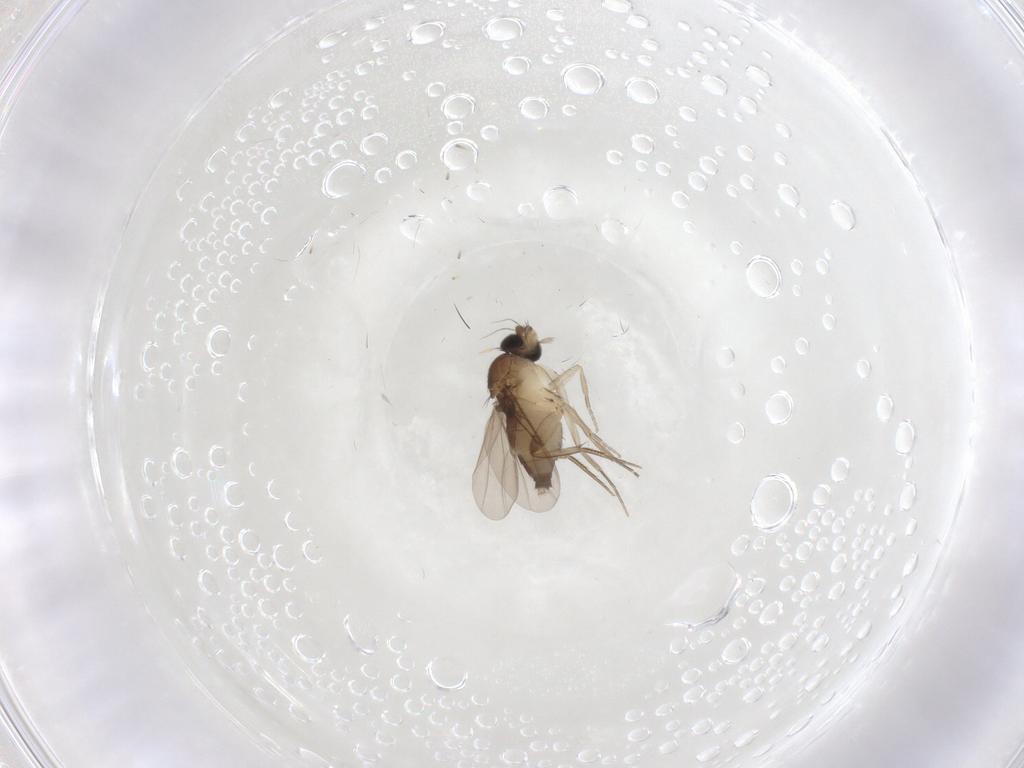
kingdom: Animalia
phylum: Arthropoda
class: Insecta
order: Diptera
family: Phoridae
